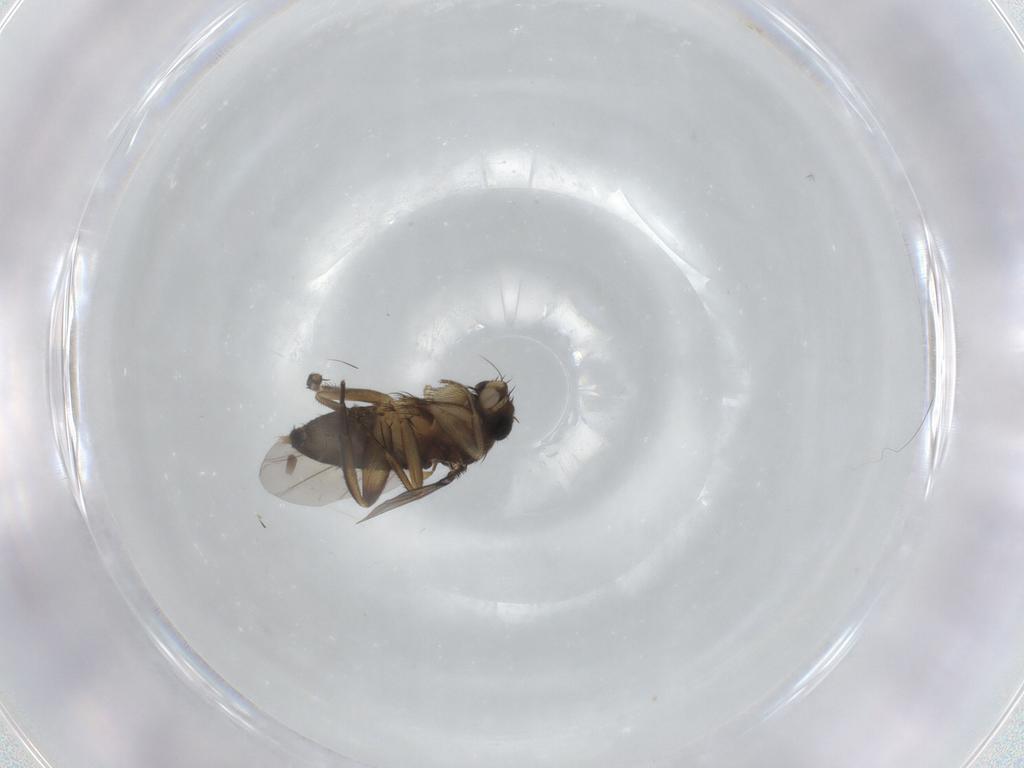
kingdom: Animalia
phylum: Arthropoda
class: Insecta
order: Diptera
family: Phoridae
